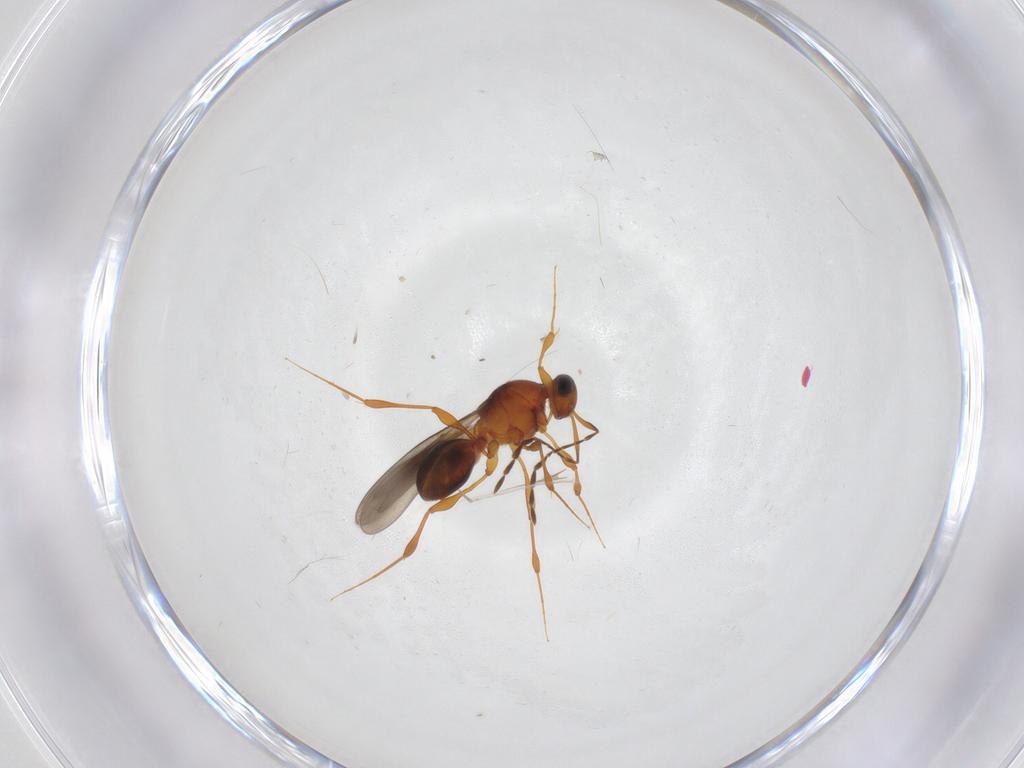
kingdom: Animalia
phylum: Arthropoda
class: Insecta
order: Hymenoptera
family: Platygastridae
